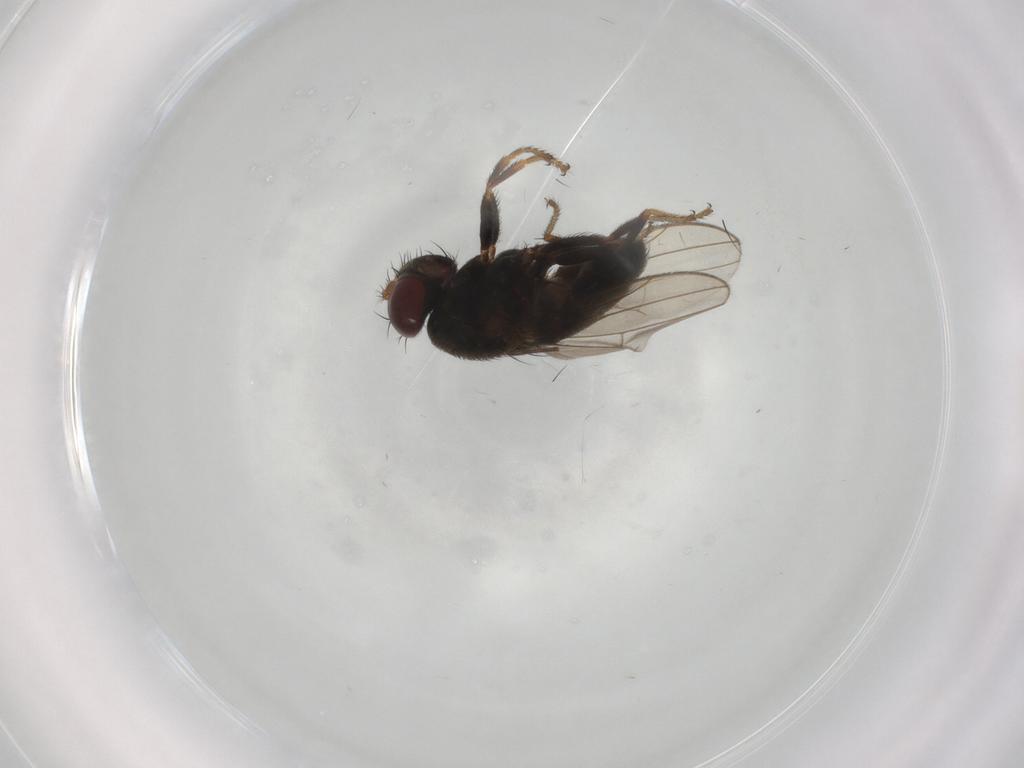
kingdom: Animalia
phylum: Arthropoda
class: Insecta
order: Diptera
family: Chironomidae
